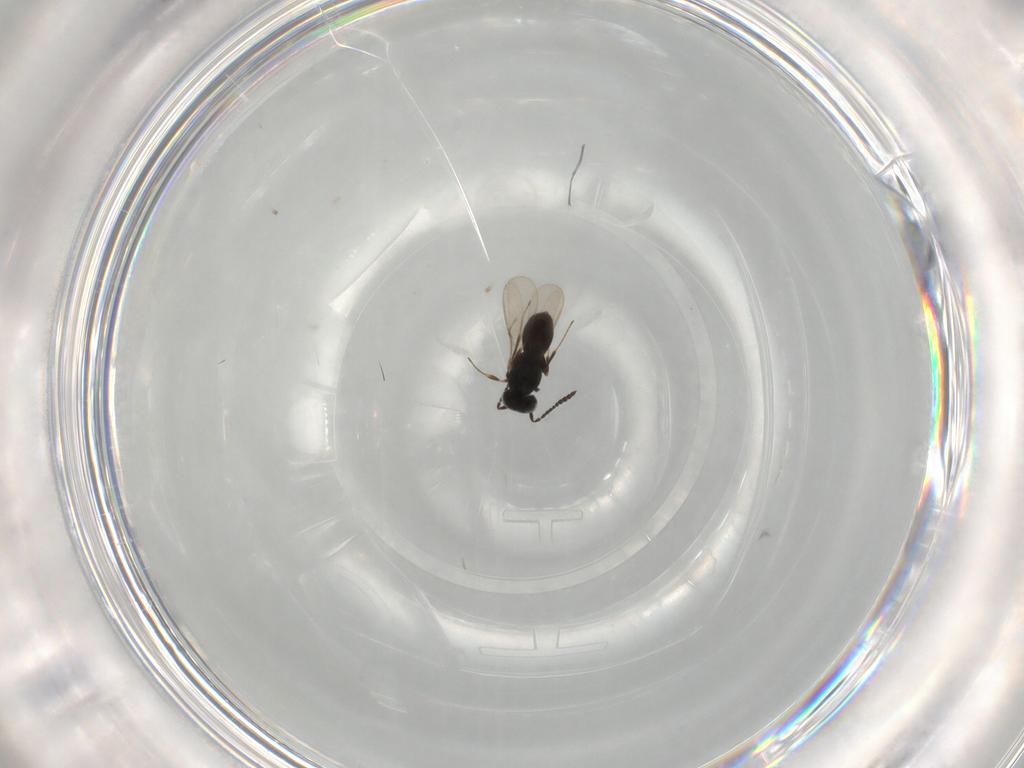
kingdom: Animalia
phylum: Arthropoda
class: Insecta
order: Hymenoptera
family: Scelionidae
